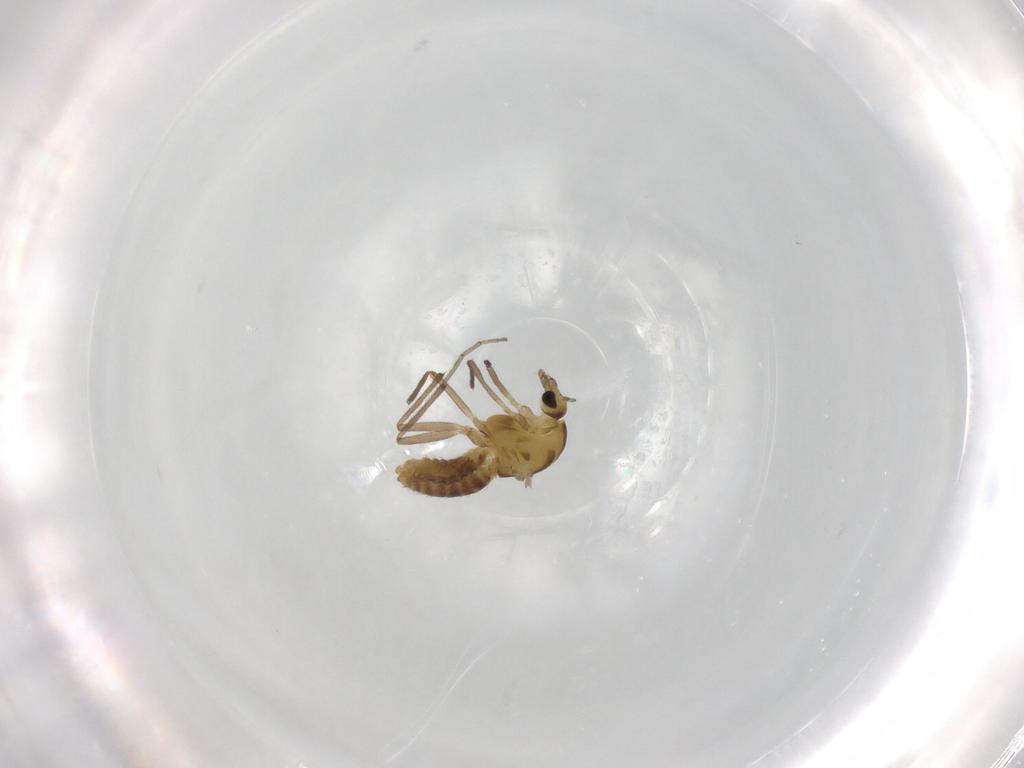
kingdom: Animalia
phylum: Arthropoda
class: Insecta
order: Diptera
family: Chironomidae
